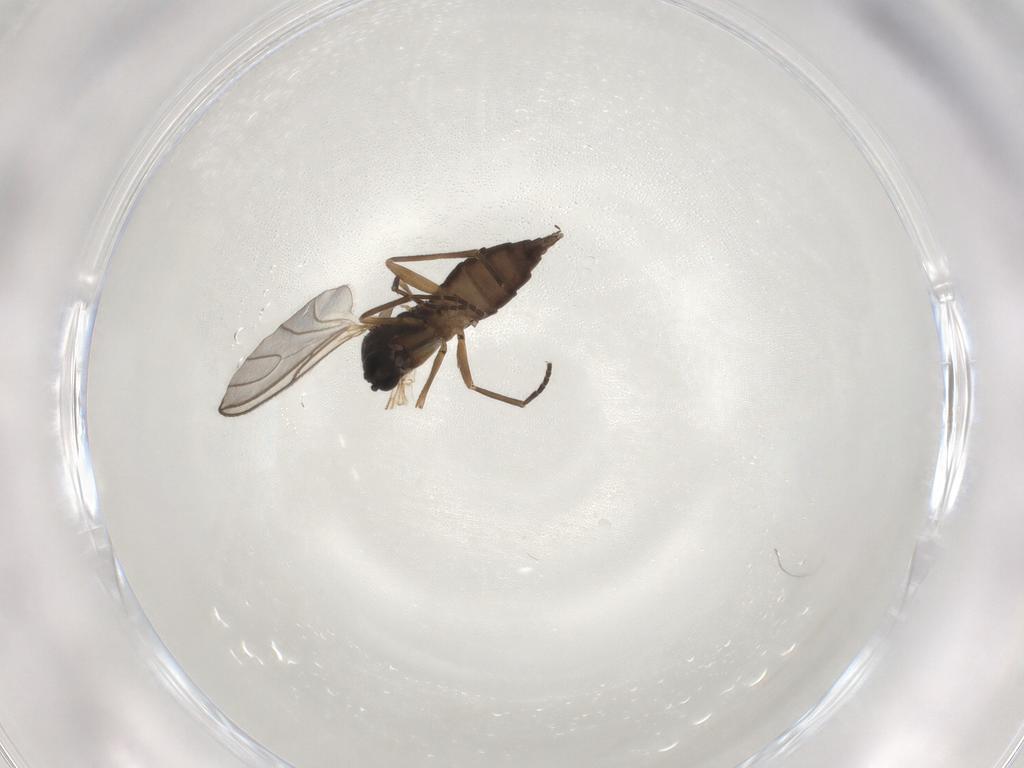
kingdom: Animalia
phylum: Arthropoda
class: Insecta
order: Diptera
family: Sciaridae
